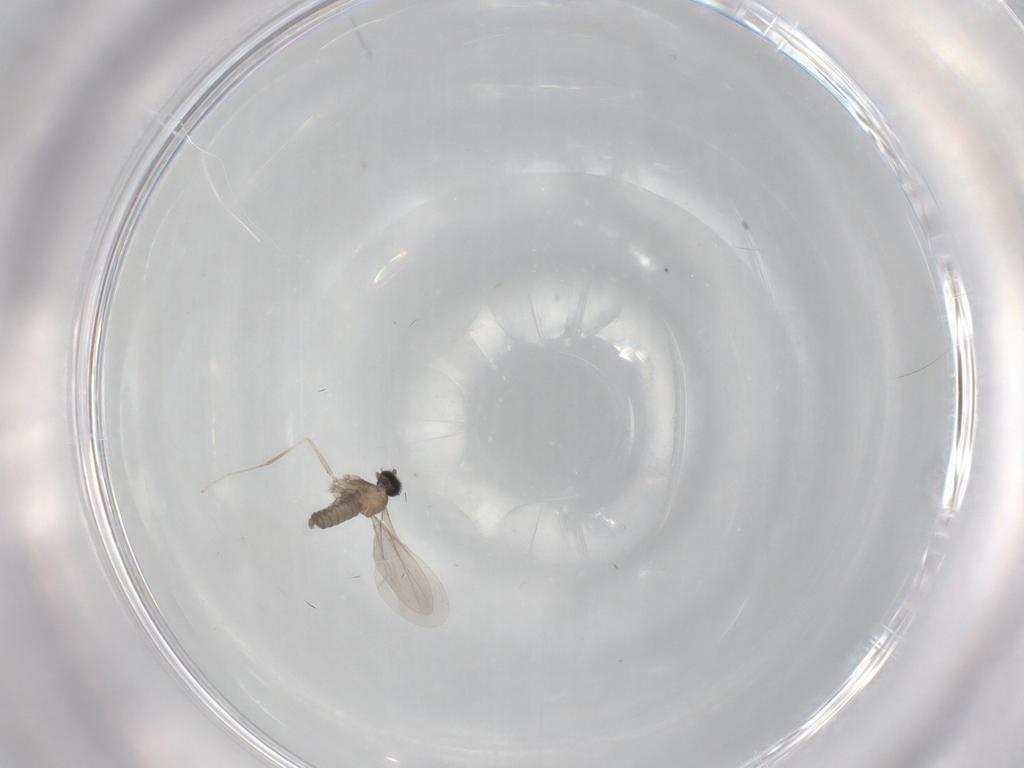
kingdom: Animalia
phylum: Arthropoda
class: Insecta
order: Diptera
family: Cecidomyiidae
